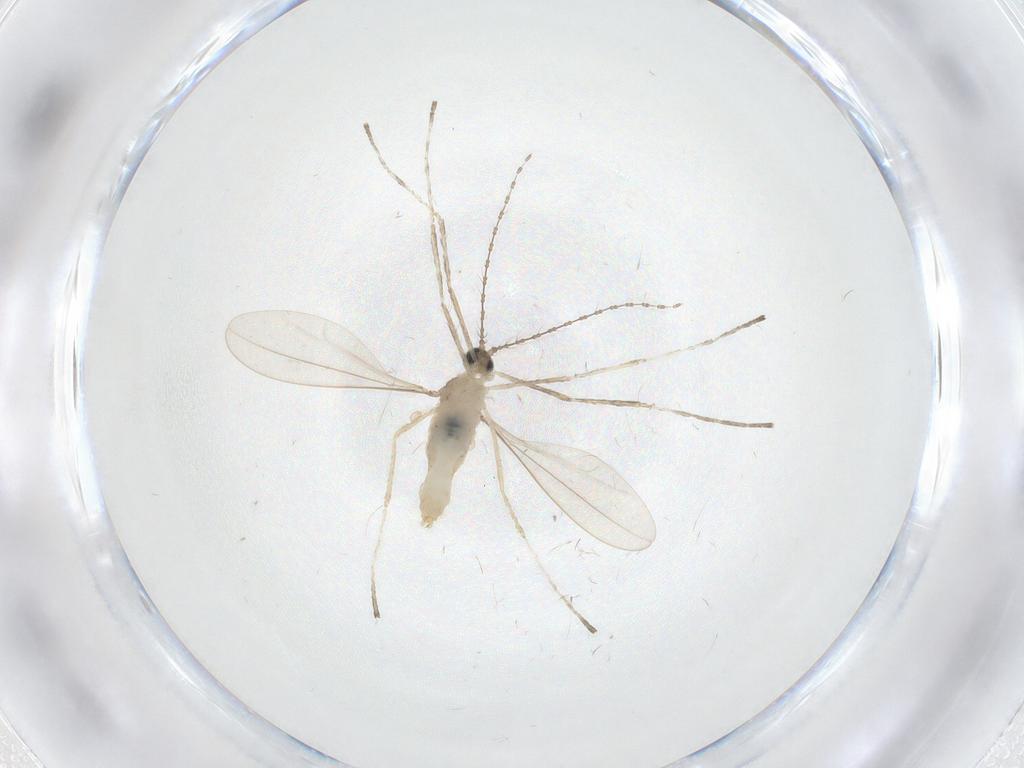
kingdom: Animalia
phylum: Arthropoda
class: Insecta
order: Diptera
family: Cecidomyiidae
